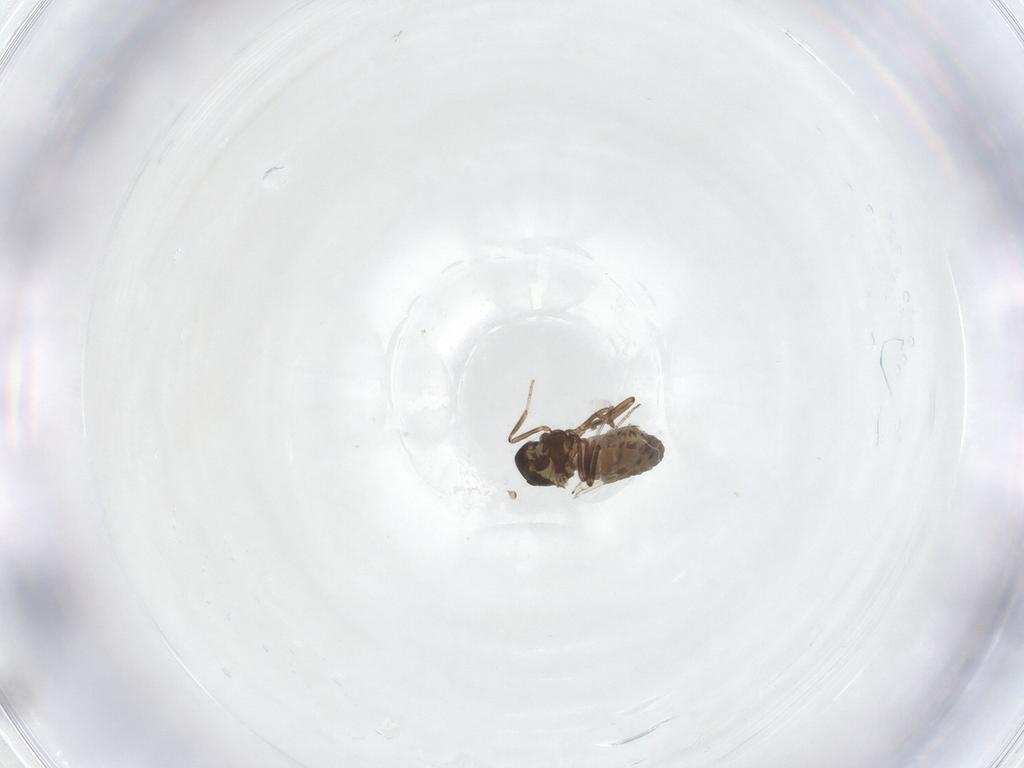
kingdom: Animalia
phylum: Arthropoda
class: Insecta
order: Diptera
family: Ceratopogonidae
